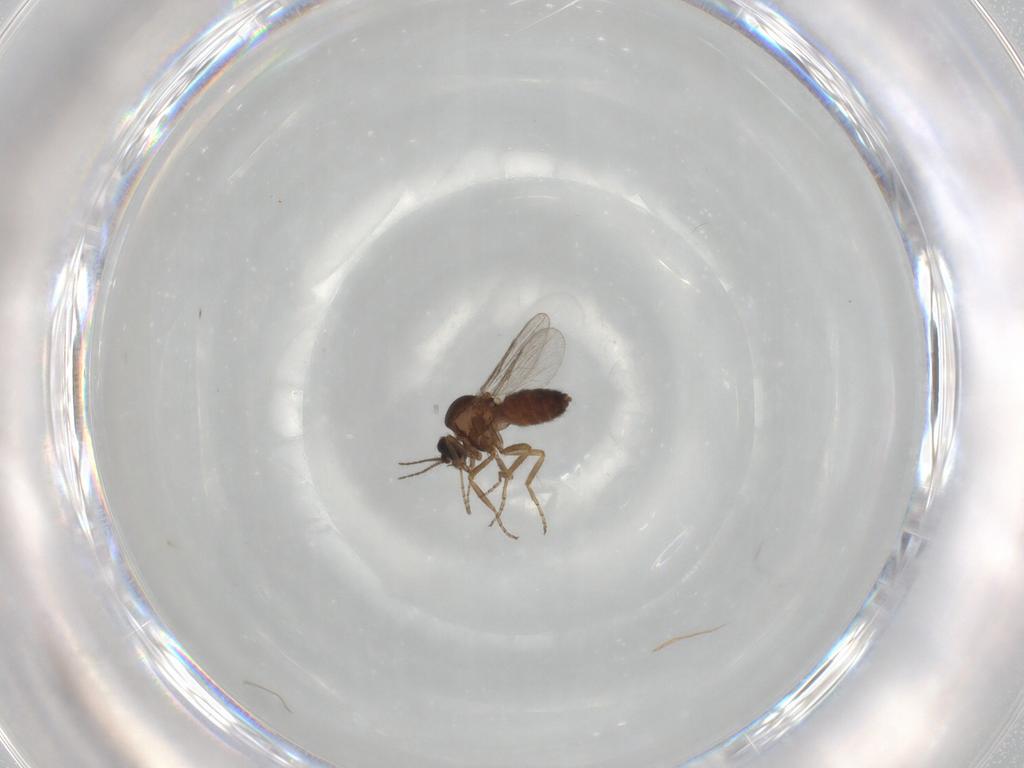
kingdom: Animalia
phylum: Arthropoda
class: Insecta
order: Diptera
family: Ceratopogonidae
